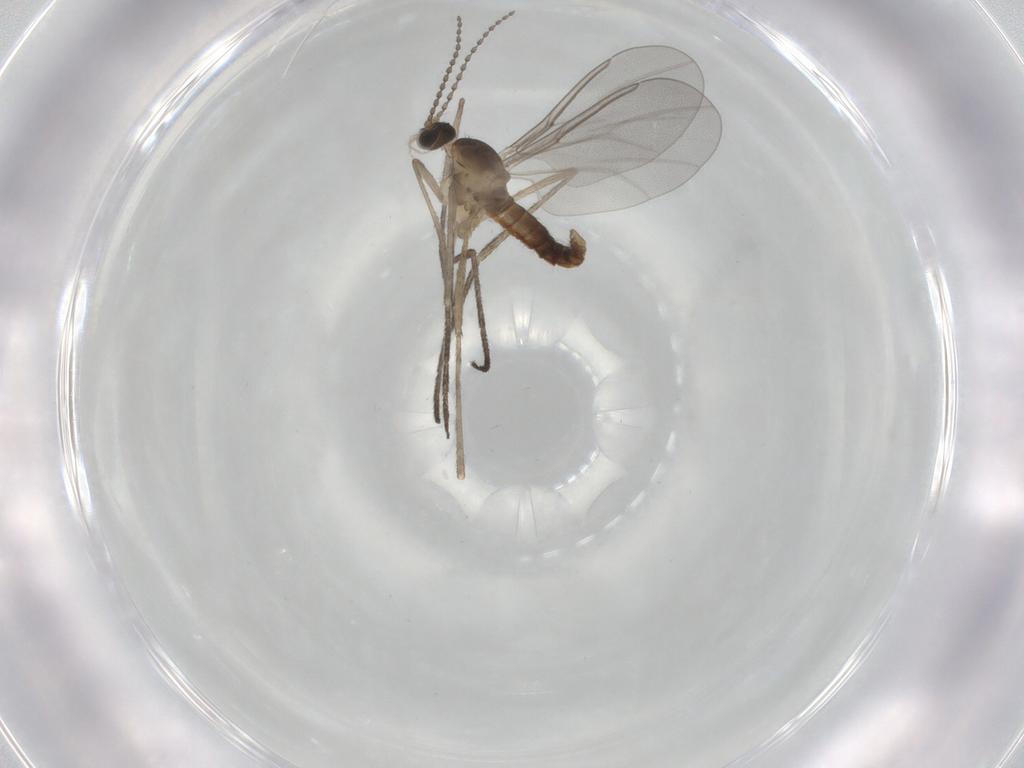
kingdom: Animalia
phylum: Arthropoda
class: Insecta
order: Diptera
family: Cecidomyiidae
